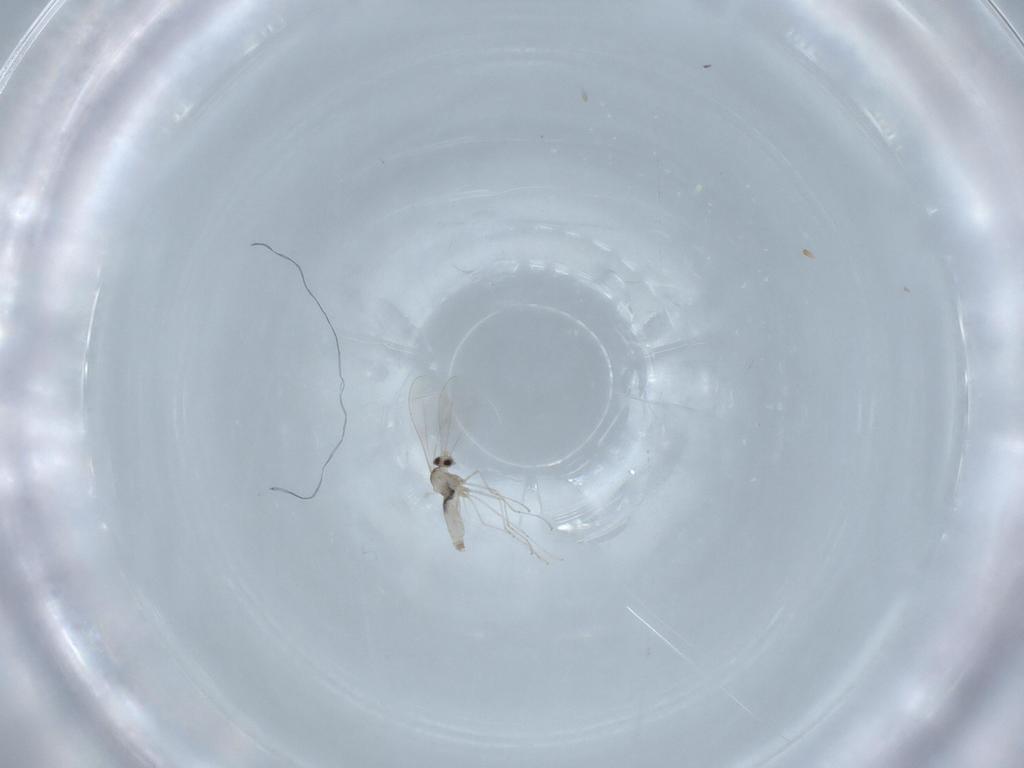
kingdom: Animalia
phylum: Arthropoda
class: Insecta
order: Diptera
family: Cecidomyiidae
